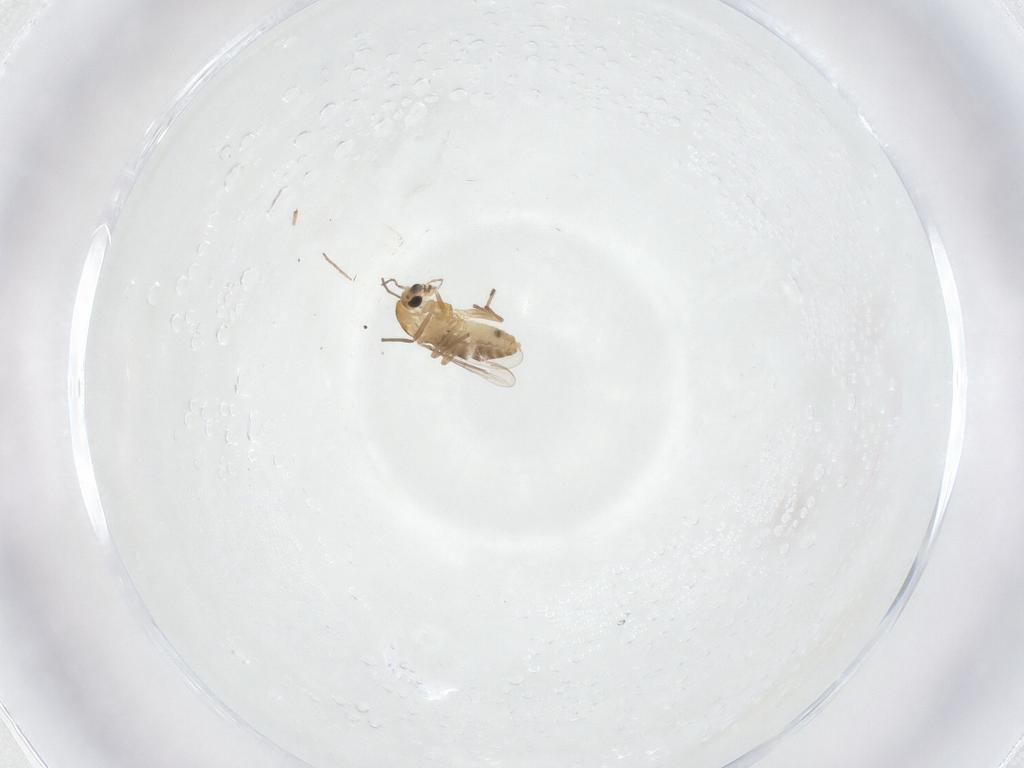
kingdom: Animalia
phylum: Arthropoda
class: Insecta
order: Diptera
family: Chironomidae
